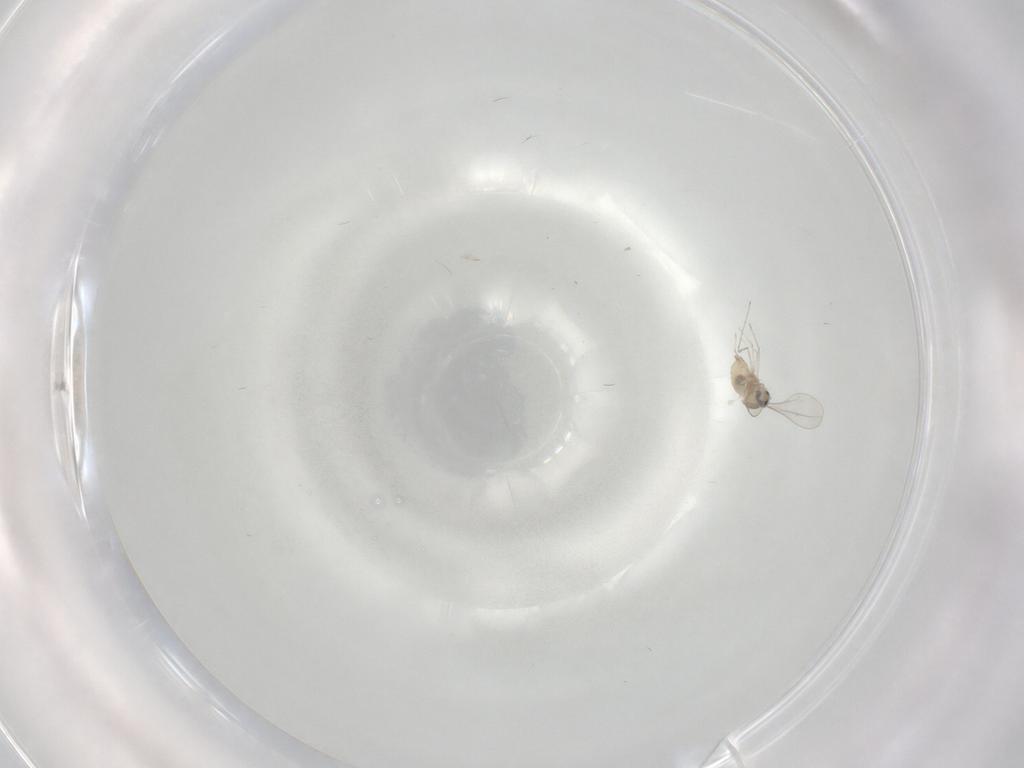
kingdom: Animalia
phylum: Arthropoda
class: Insecta
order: Diptera
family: Cecidomyiidae
